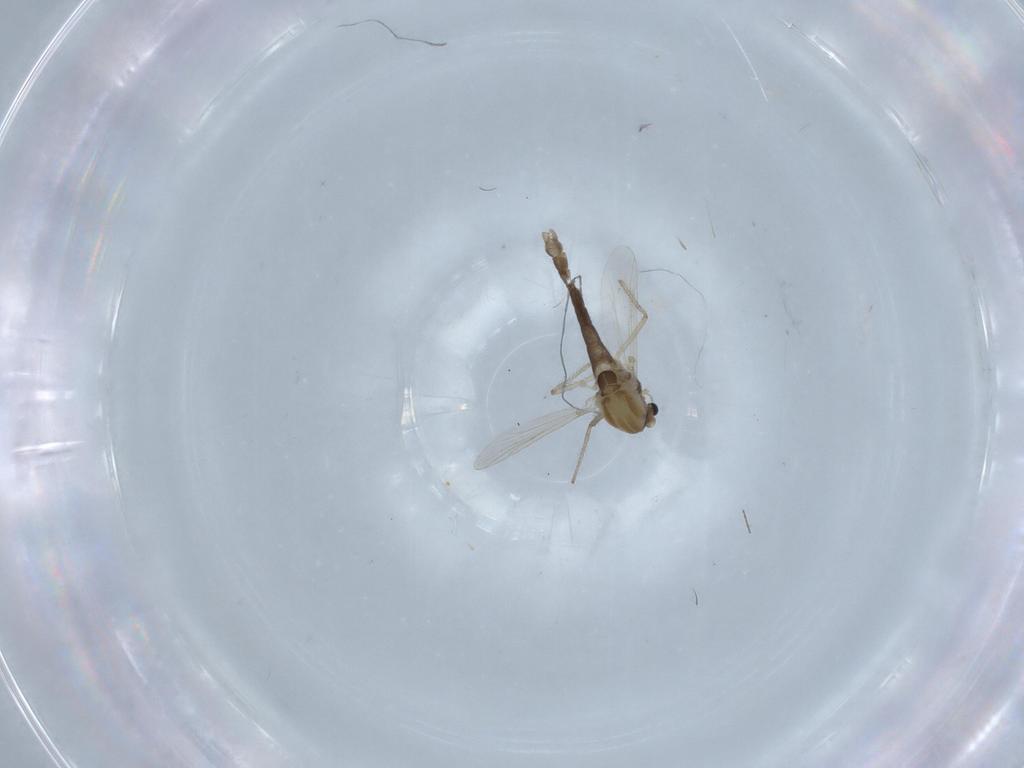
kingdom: Animalia
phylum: Arthropoda
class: Insecta
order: Diptera
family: Chironomidae
